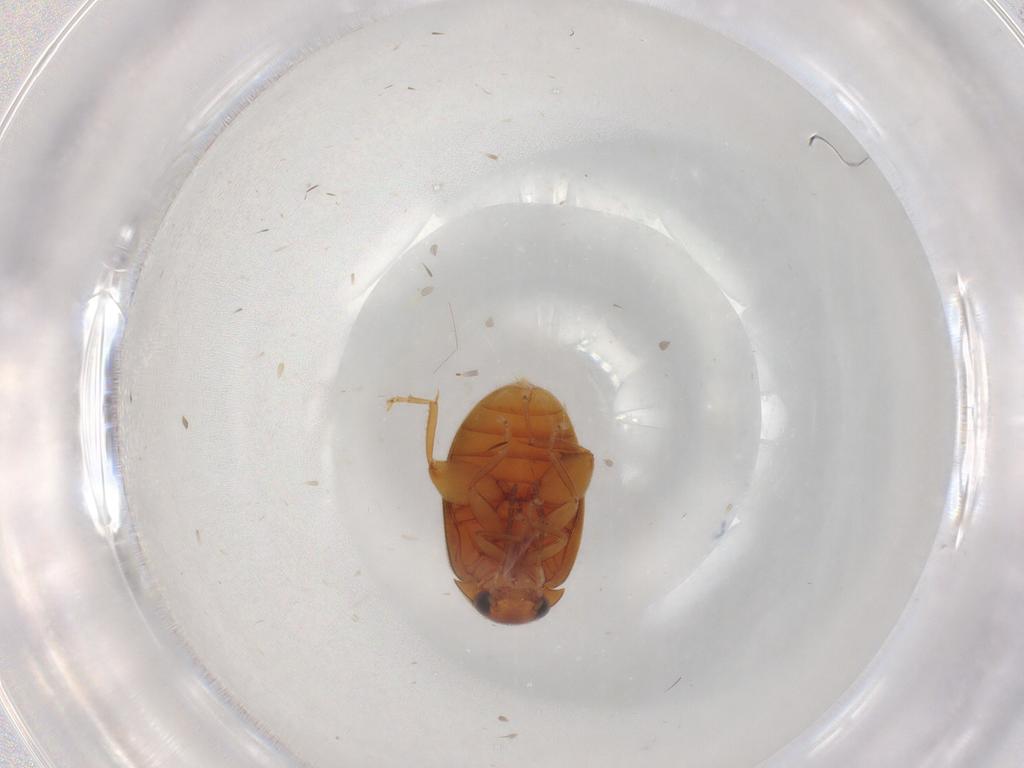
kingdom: Animalia
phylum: Arthropoda
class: Insecta
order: Coleoptera
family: Scirtidae
